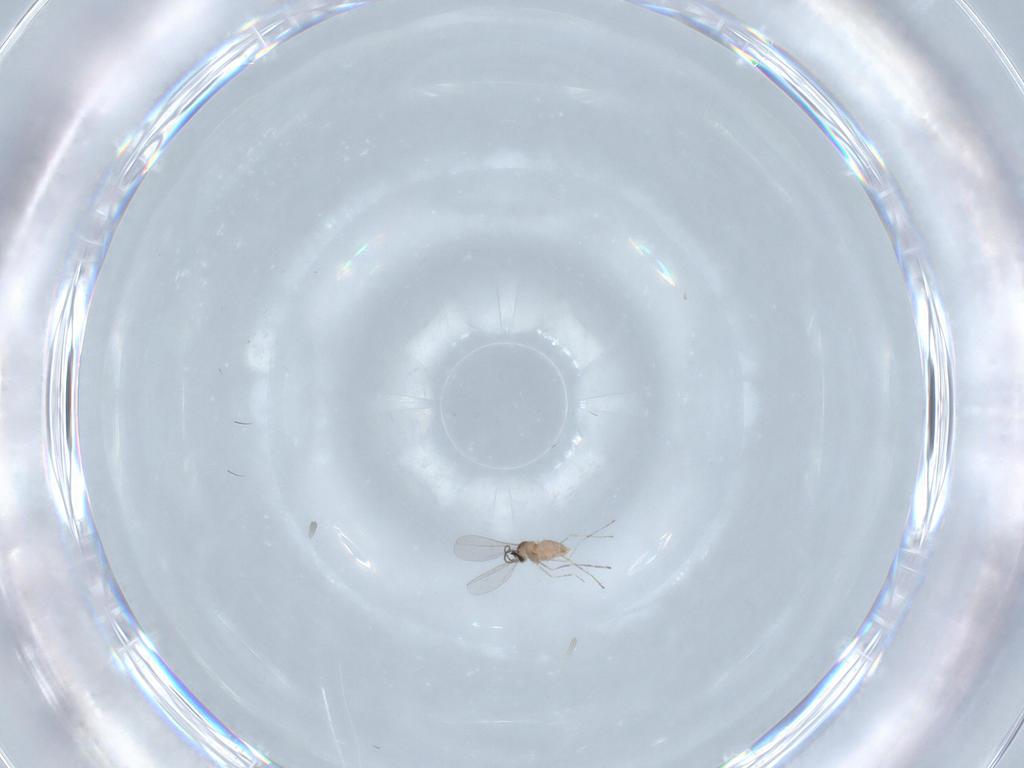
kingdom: Animalia
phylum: Arthropoda
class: Insecta
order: Diptera
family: Cecidomyiidae
